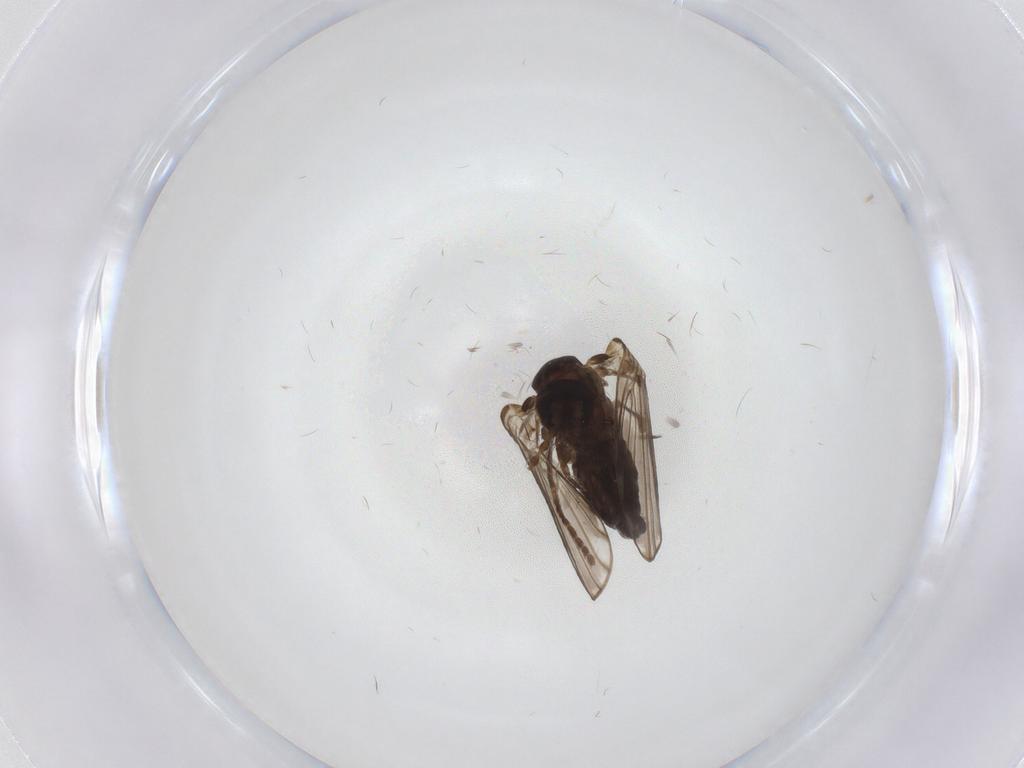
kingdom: Animalia
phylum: Arthropoda
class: Insecta
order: Diptera
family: Psychodidae
